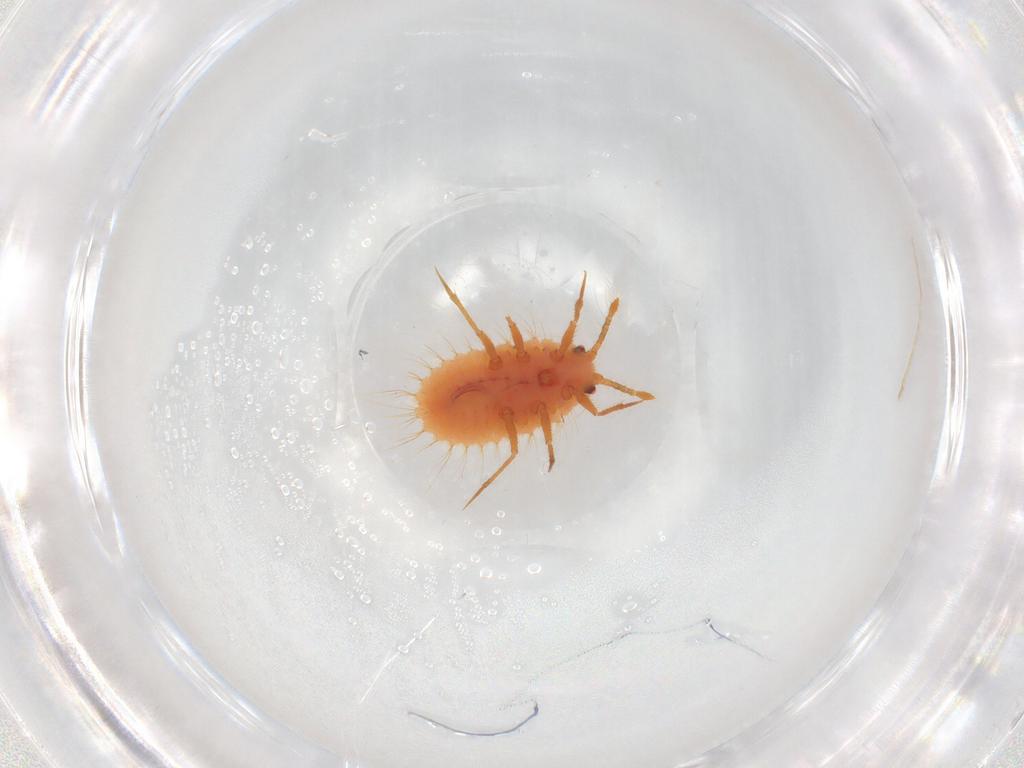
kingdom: Animalia
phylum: Arthropoda
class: Insecta
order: Hemiptera
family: Coccoidea_incertae_sedis
